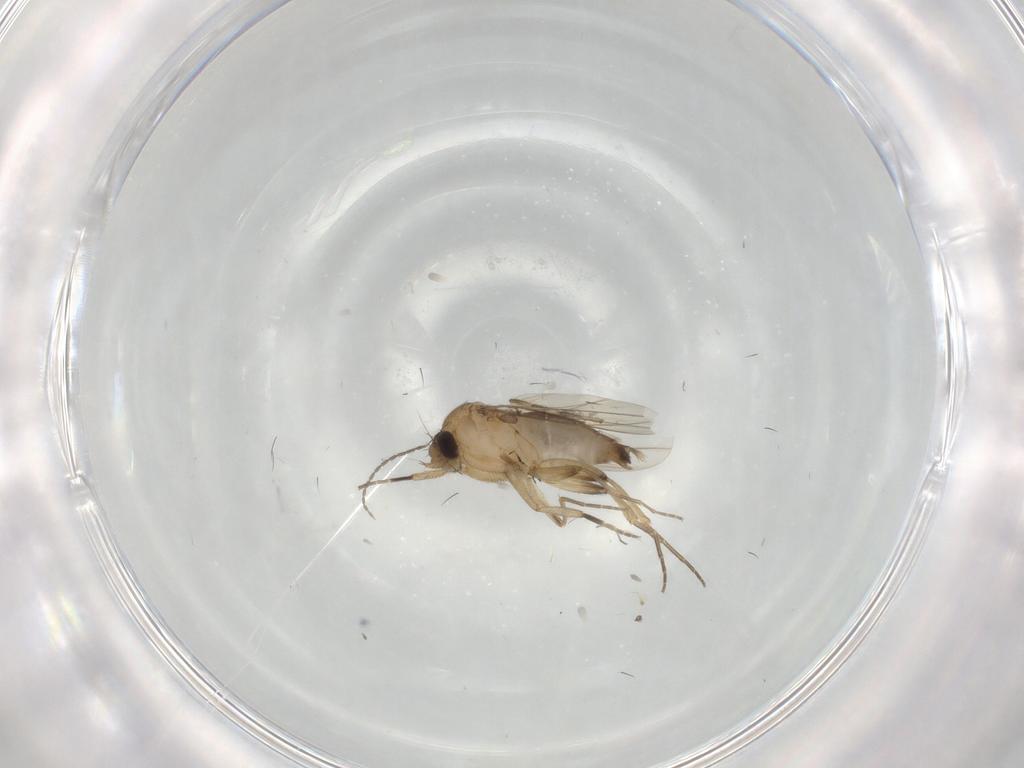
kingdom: Animalia
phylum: Arthropoda
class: Insecta
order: Diptera
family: Phoridae
